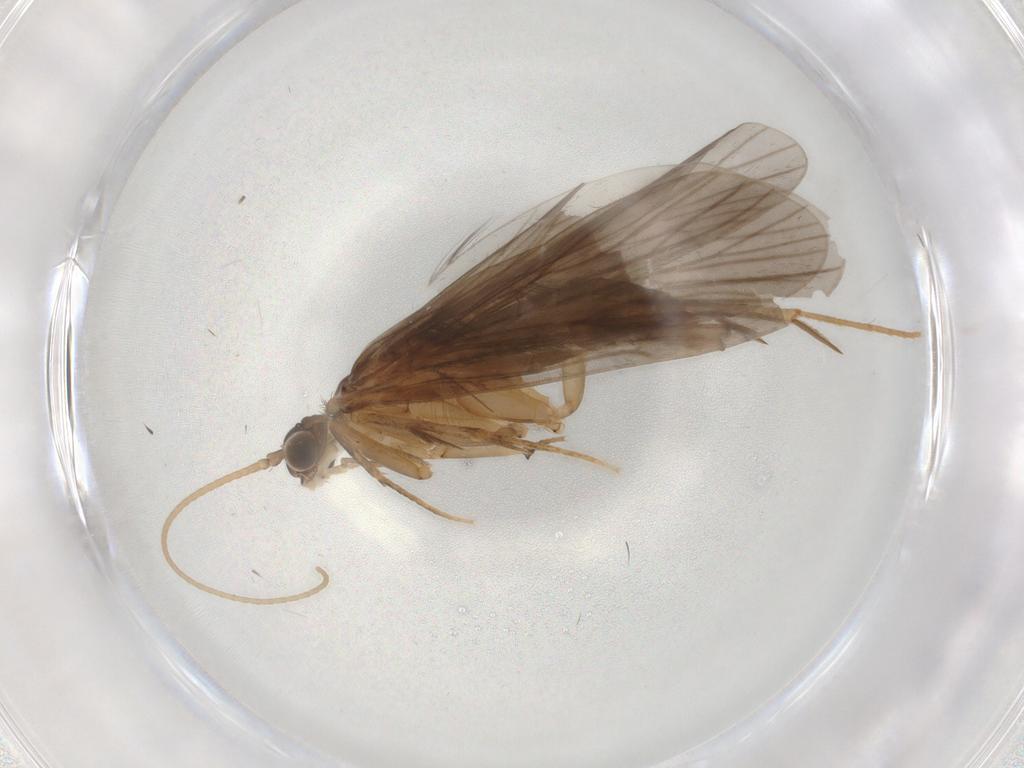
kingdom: Animalia
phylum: Arthropoda
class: Insecta
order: Trichoptera
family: Philopotamidae
